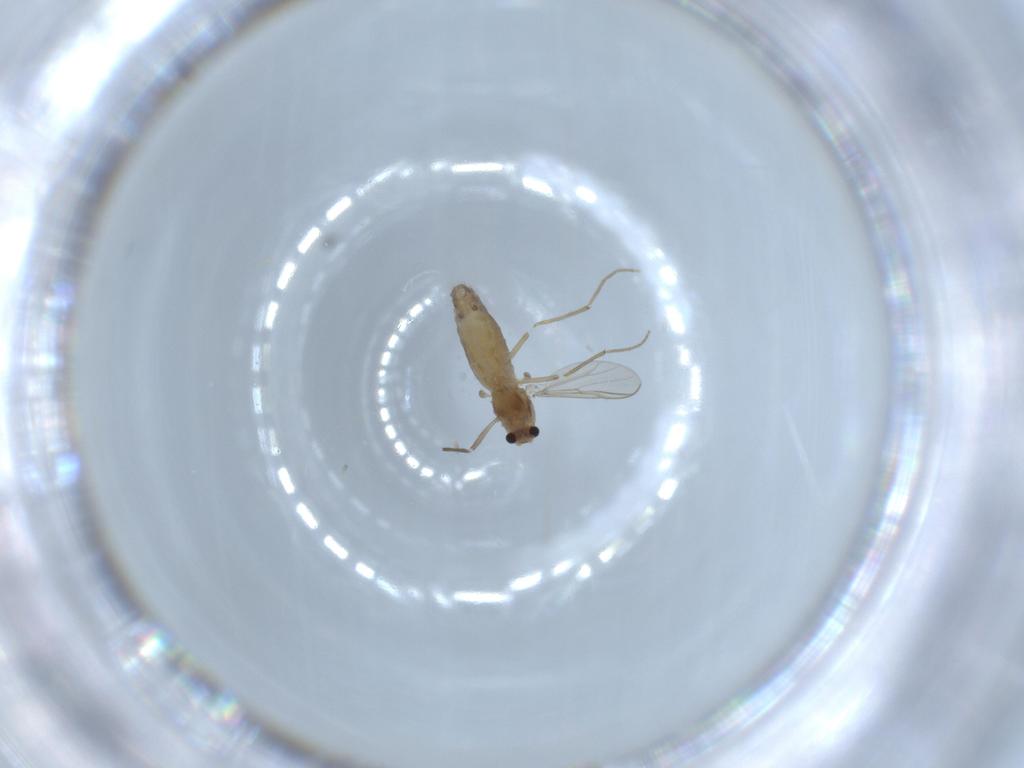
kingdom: Animalia
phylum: Arthropoda
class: Insecta
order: Diptera
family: Chironomidae
